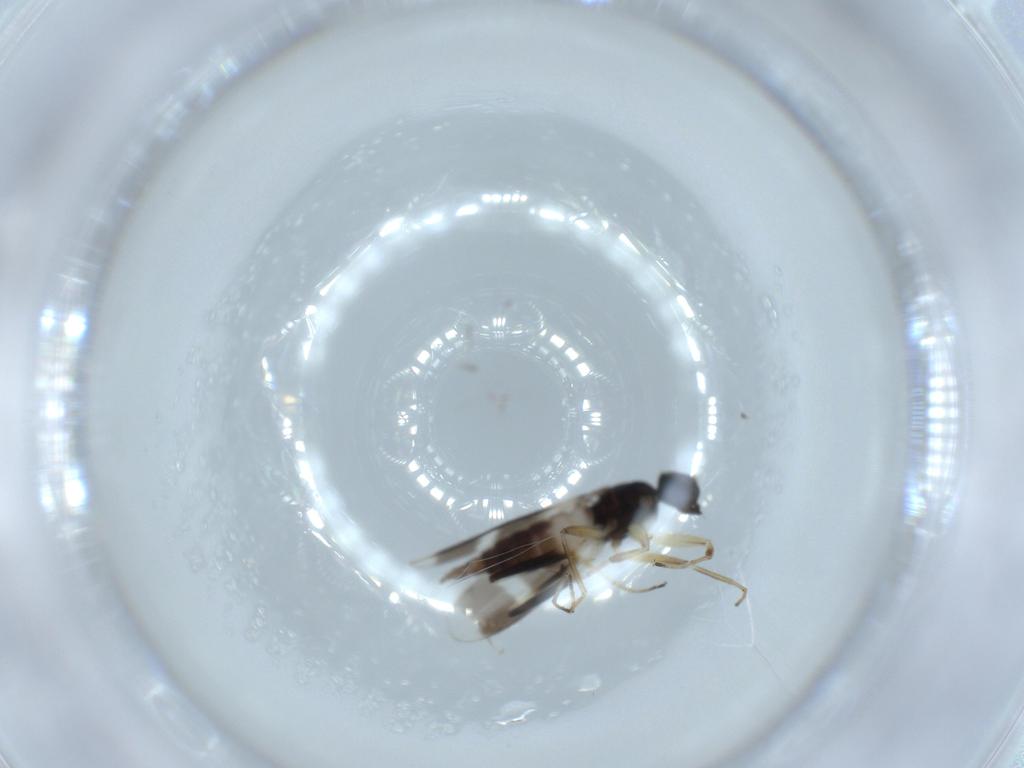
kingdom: Animalia
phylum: Arthropoda
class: Insecta
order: Diptera
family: Hybotidae
